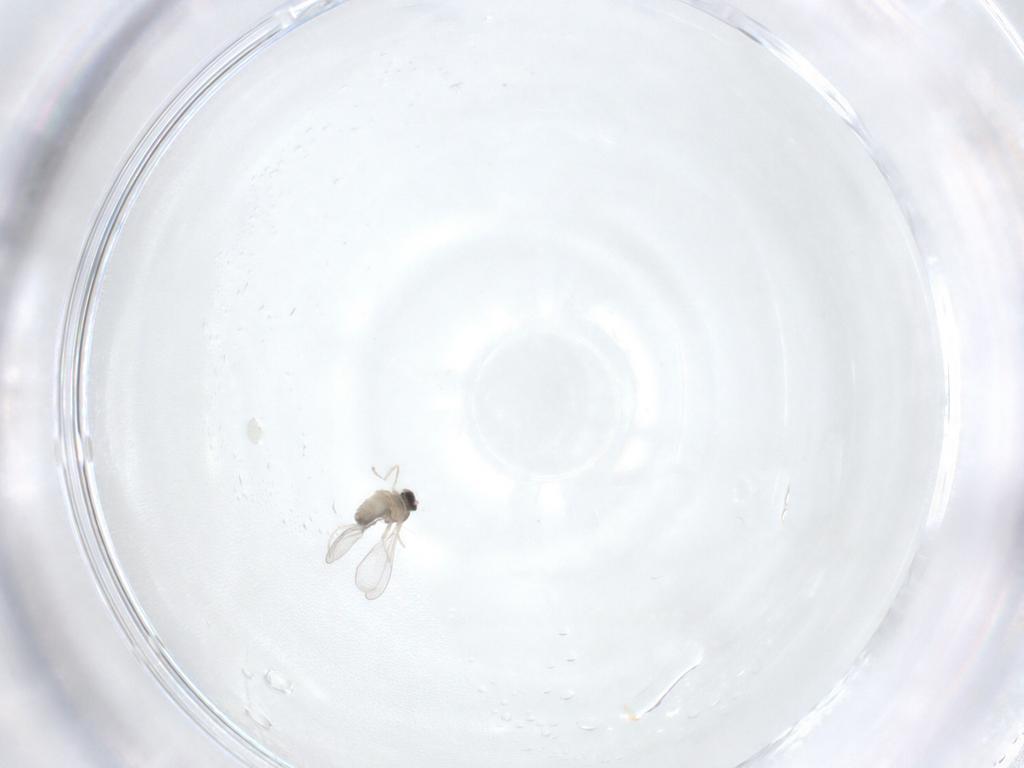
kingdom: Animalia
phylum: Arthropoda
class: Insecta
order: Diptera
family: Cecidomyiidae
